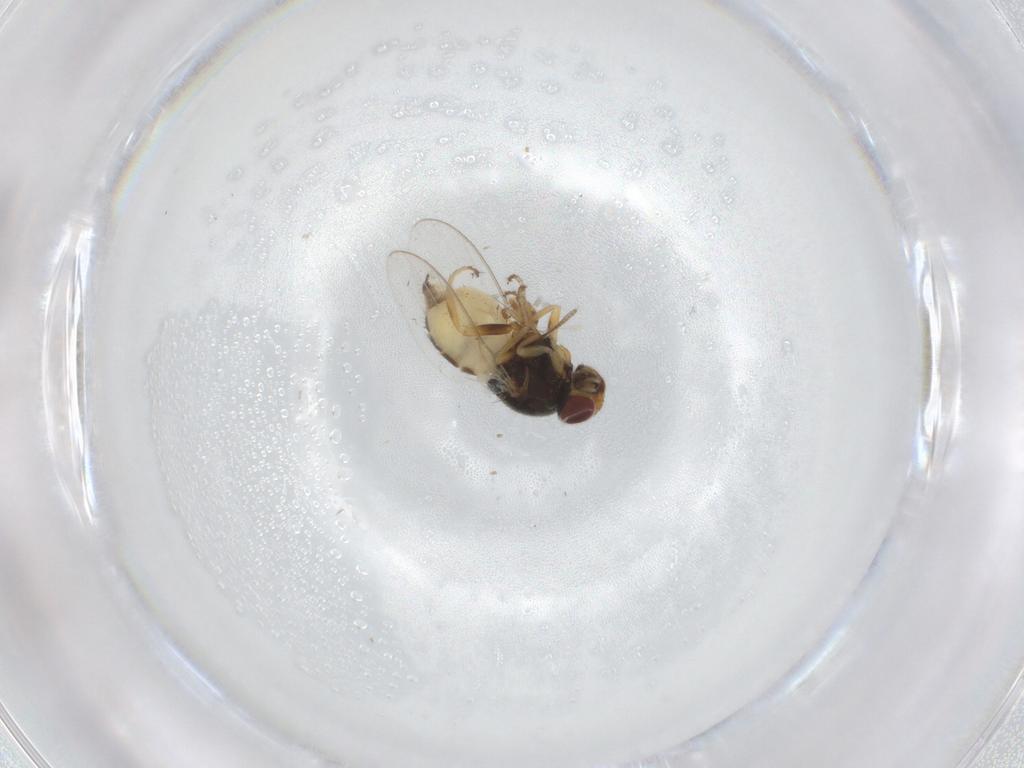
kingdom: Animalia
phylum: Arthropoda
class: Insecta
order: Diptera
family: Chloropidae
